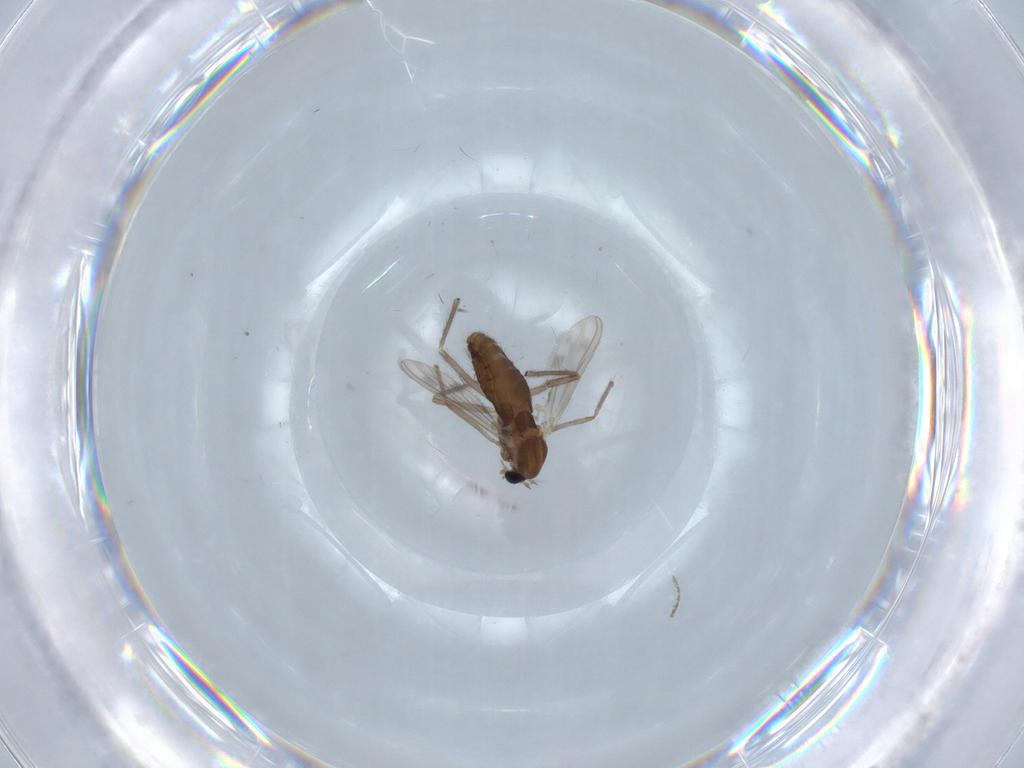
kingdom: Animalia
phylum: Arthropoda
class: Insecta
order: Diptera
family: Chironomidae
